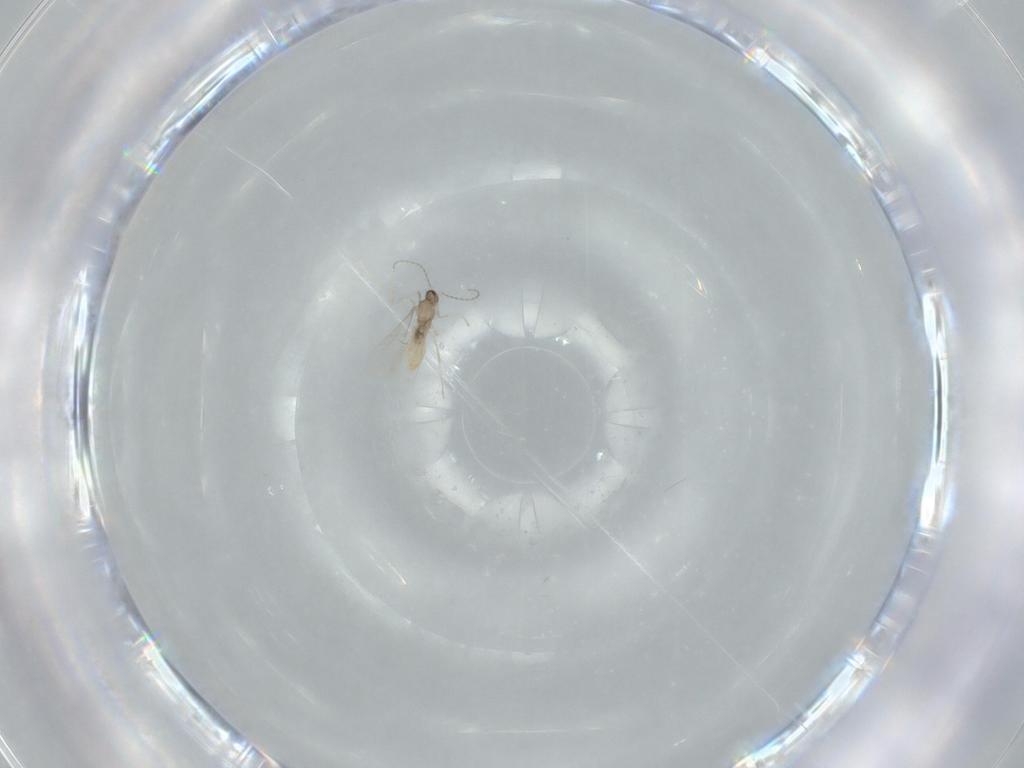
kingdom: Animalia
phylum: Arthropoda
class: Insecta
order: Diptera
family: Cecidomyiidae
